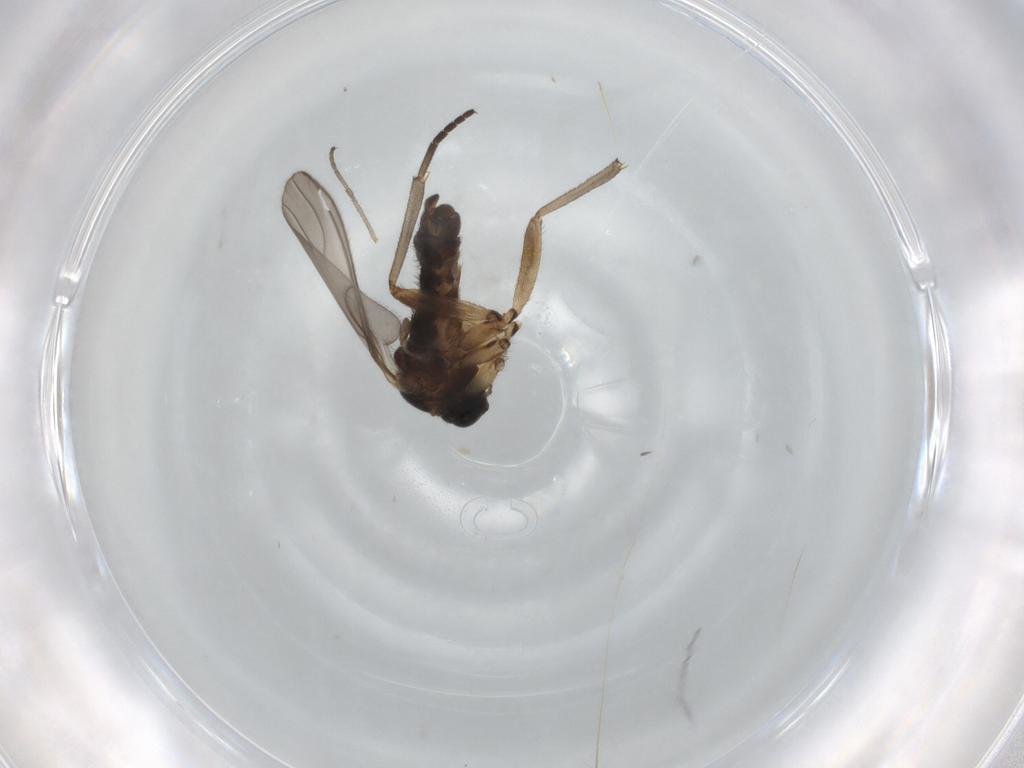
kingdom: Animalia
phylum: Arthropoda
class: Insecta
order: Diptera
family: Sciaridae
